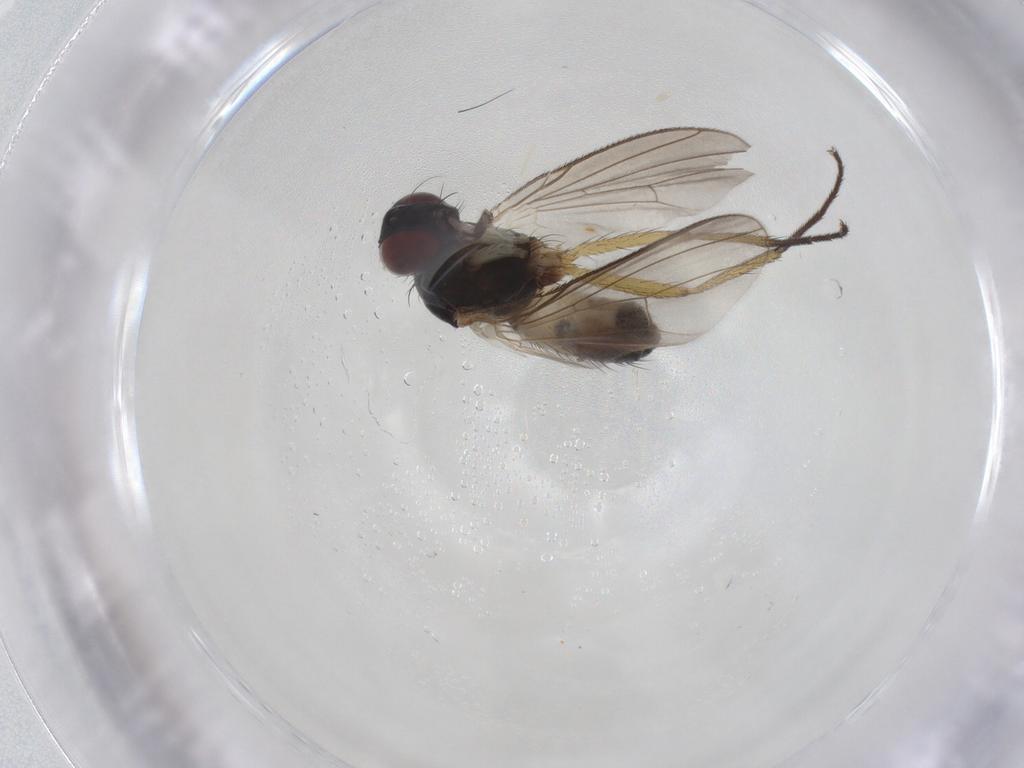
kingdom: Animalia
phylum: Arthropoda
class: Insecta
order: Diptera
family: Muscidae
